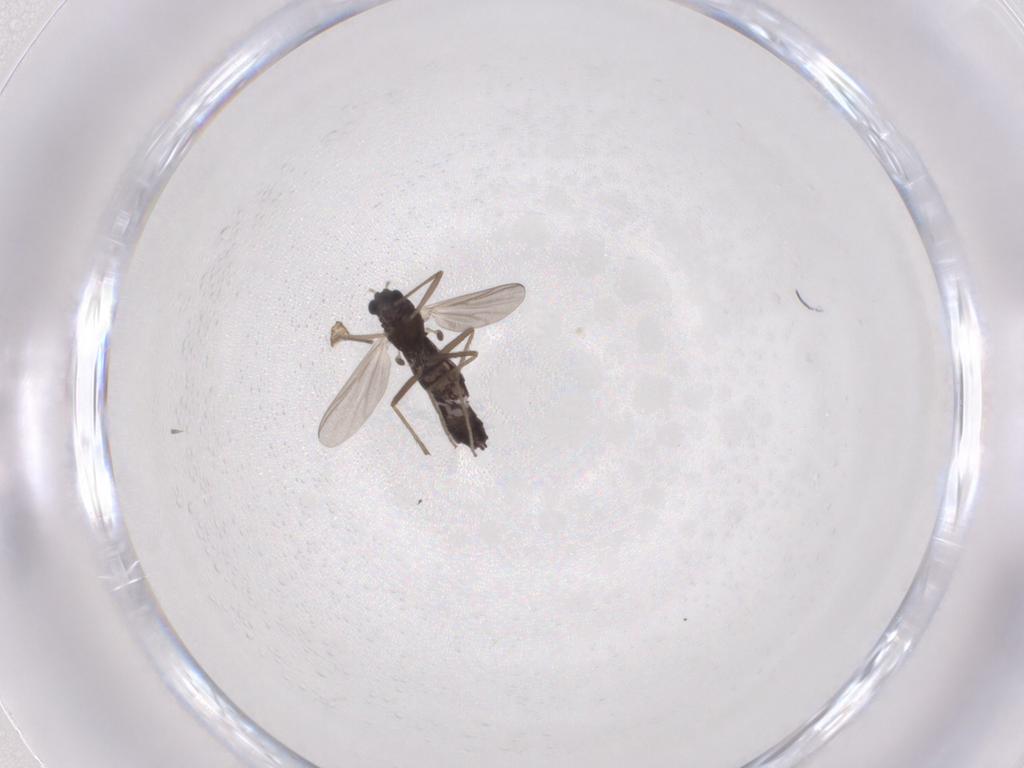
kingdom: Animalia
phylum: Arthropoda
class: Insecta
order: Diptera
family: Chironomidae
